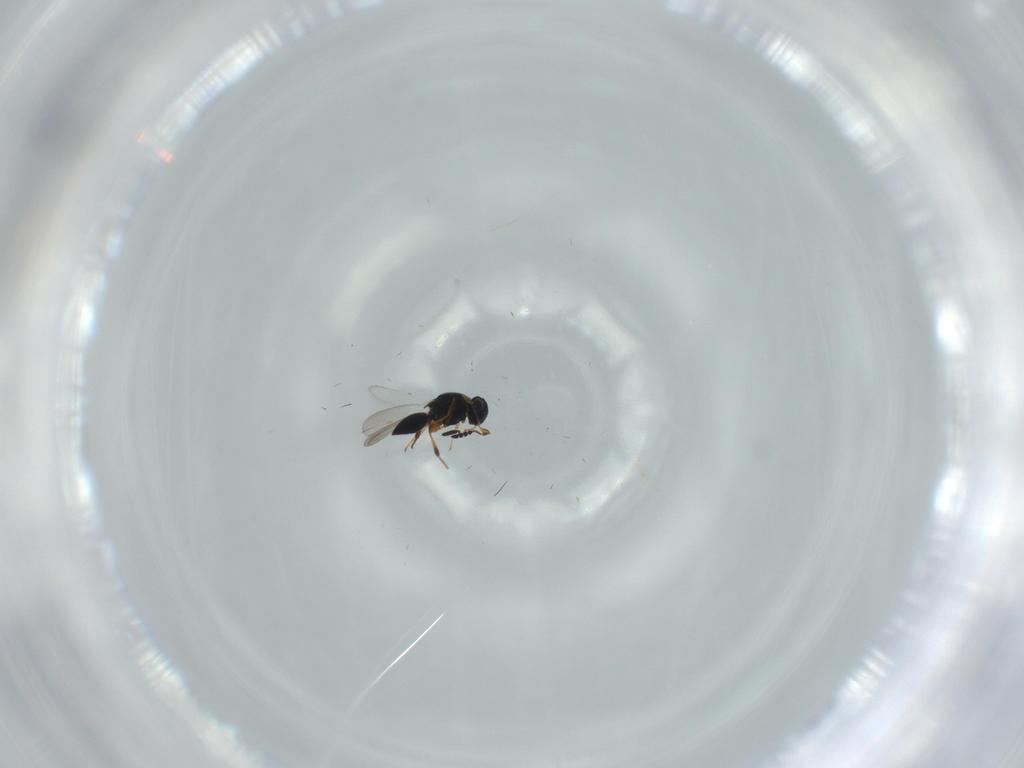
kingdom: Animalia
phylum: Arthropoda
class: Insecta
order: Hymenoptera
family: Platygastridae
